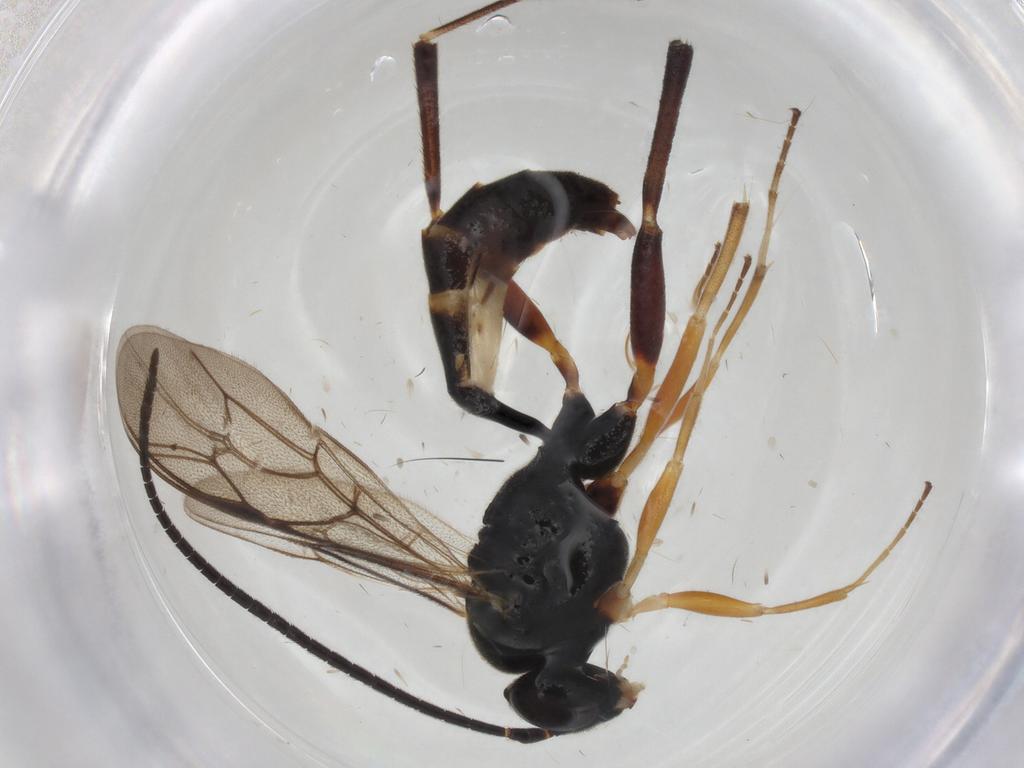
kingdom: Animalia
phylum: Arthropoda
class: Insecta
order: Hymenoptera
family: Ichneumonidae
